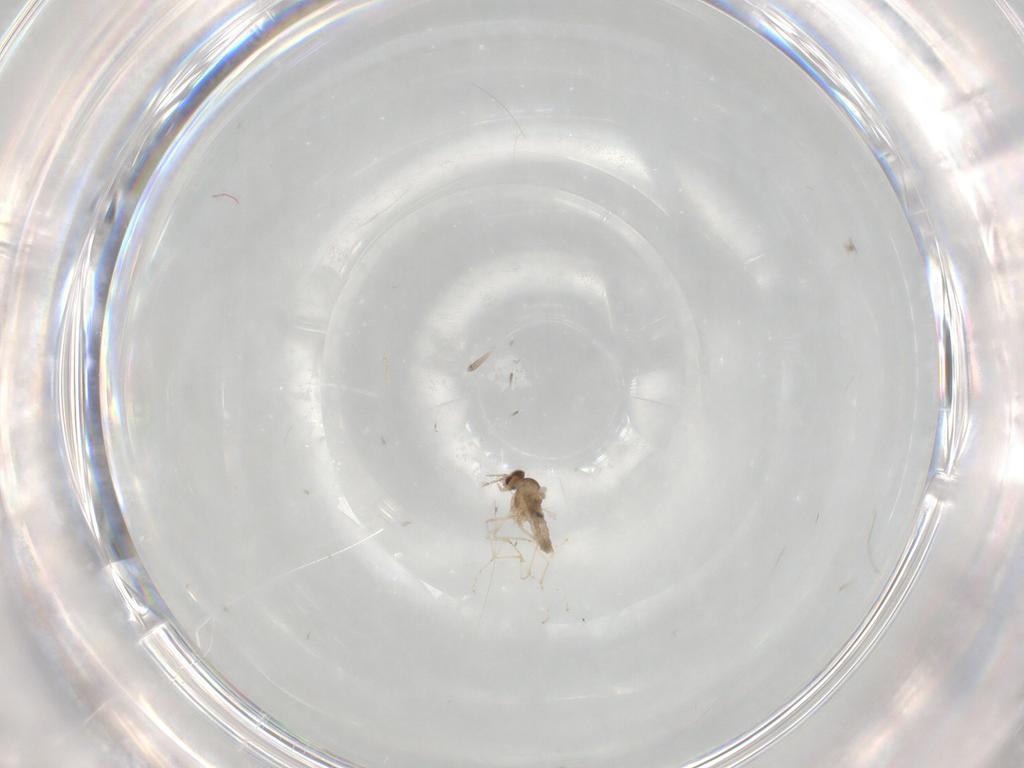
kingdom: Animalia
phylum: Arthropoda
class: Insecta
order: Diptera
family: Cecidomyiidae
